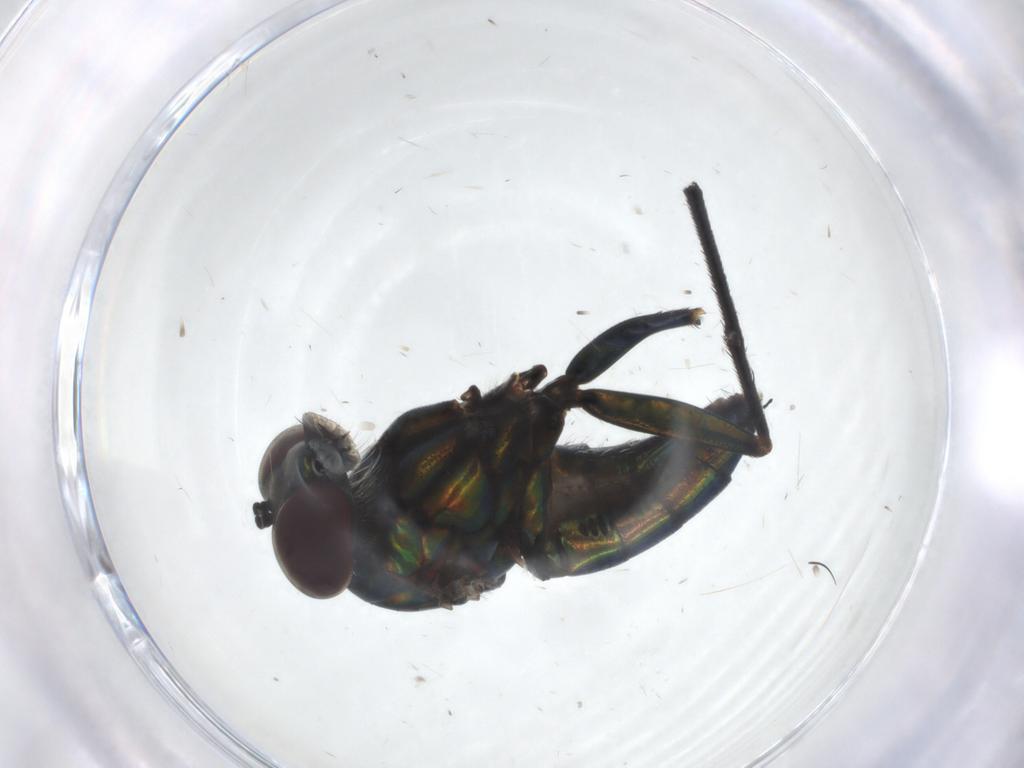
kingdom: Animalia
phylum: Arthropoda
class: Insecta
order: Diptera
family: Dolichopodidae
